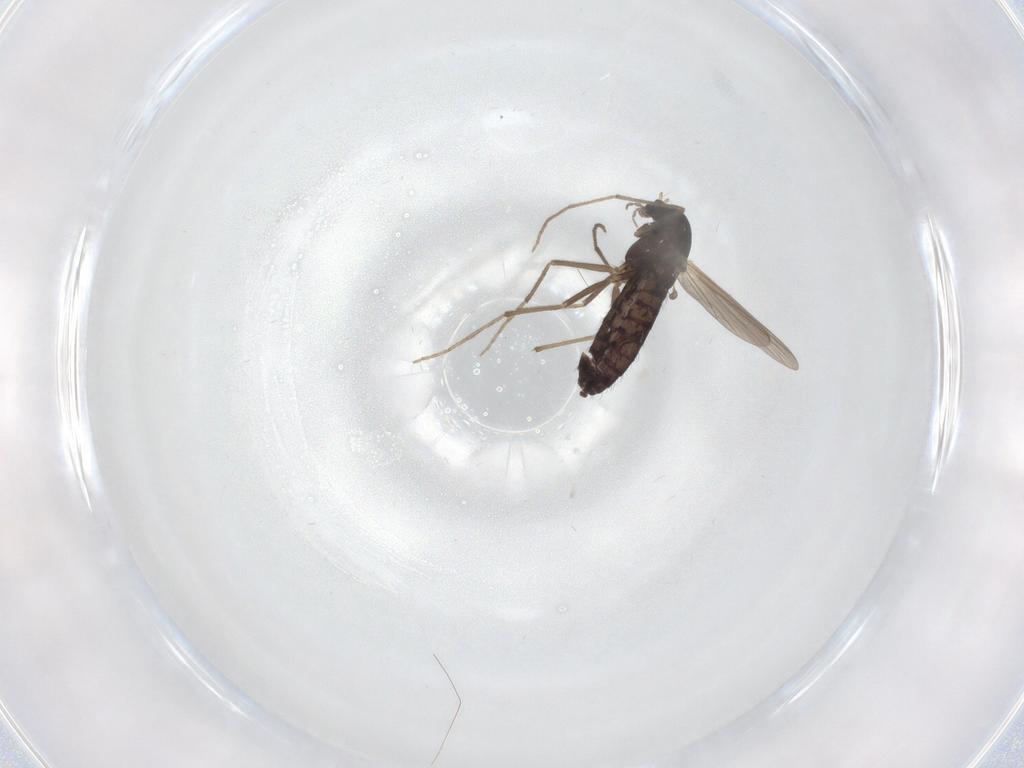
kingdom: Animalia
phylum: Arthropoda
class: Insecta
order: Diptera
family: Chironomidae
